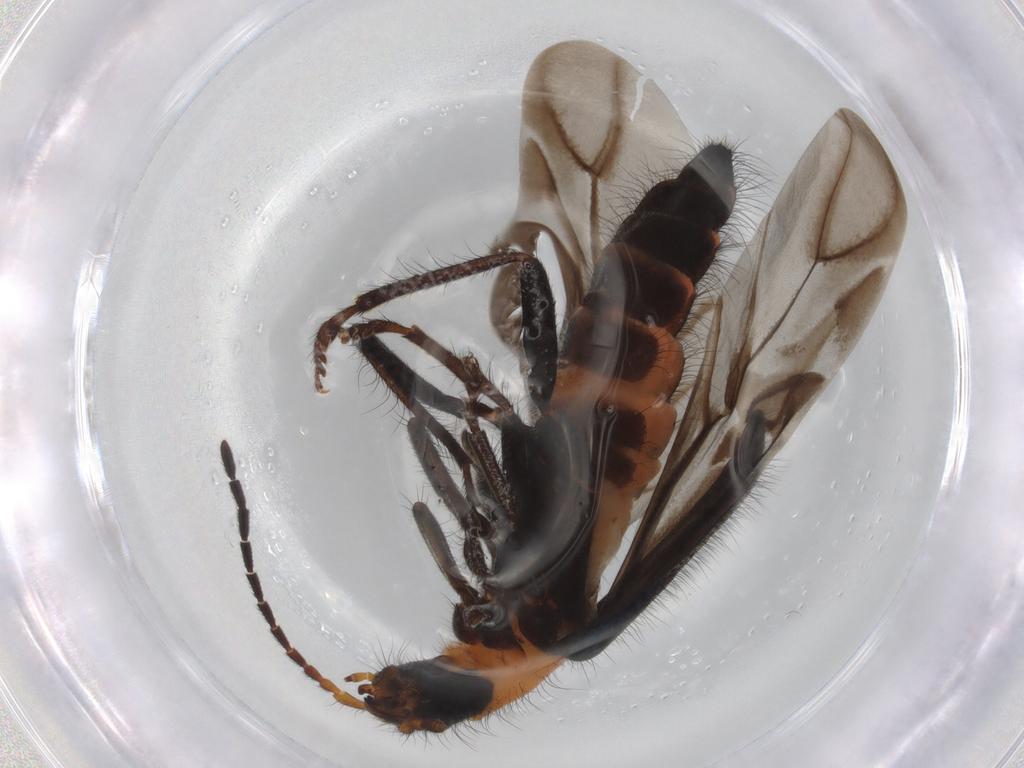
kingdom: Animalia
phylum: Arthropoda
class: Insecta
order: Coleoptera
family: Melyridae
